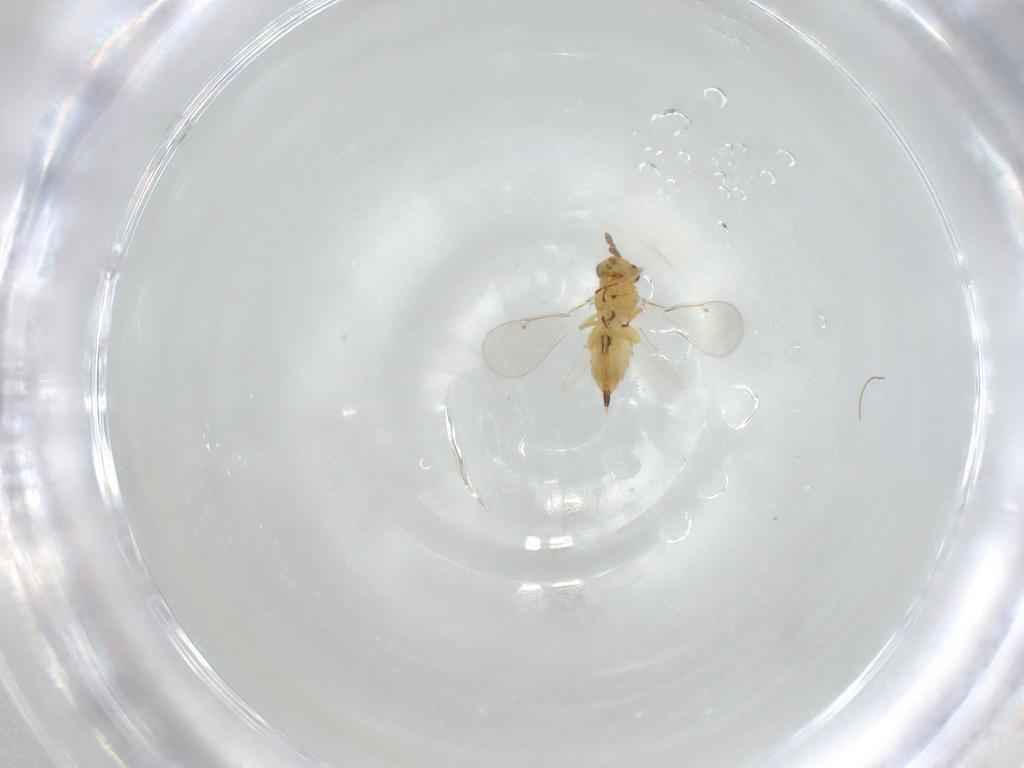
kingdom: Animalia
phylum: Arthropoda
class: Insecta
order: Hymenoptera
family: Eulophidae
